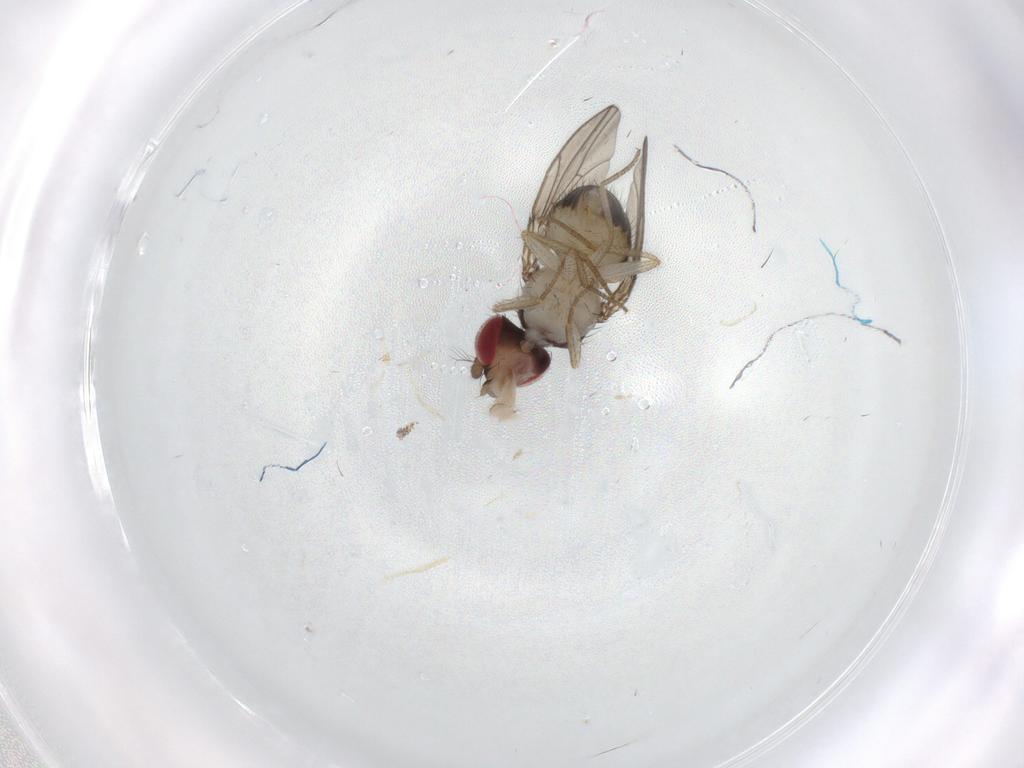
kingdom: Animalia
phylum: Arthropoda
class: Insecta
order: Diptera
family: Drosophilidae
